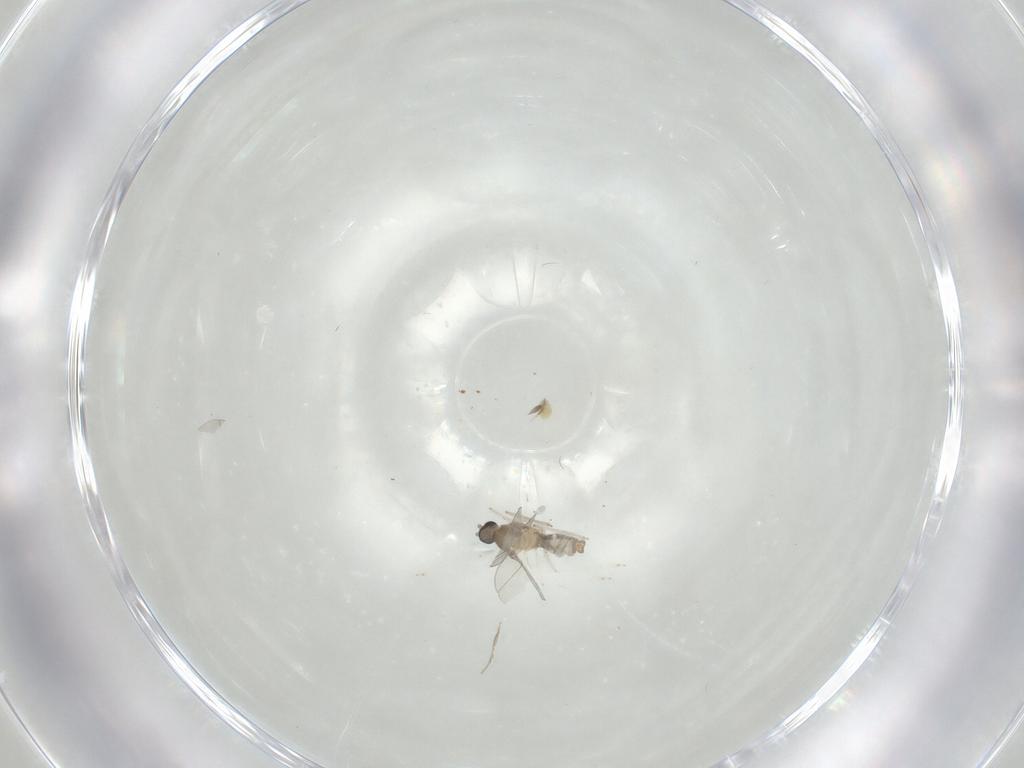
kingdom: Animalia
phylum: Arthropoda
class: Insecta
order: Diptera
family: Chironomidae
